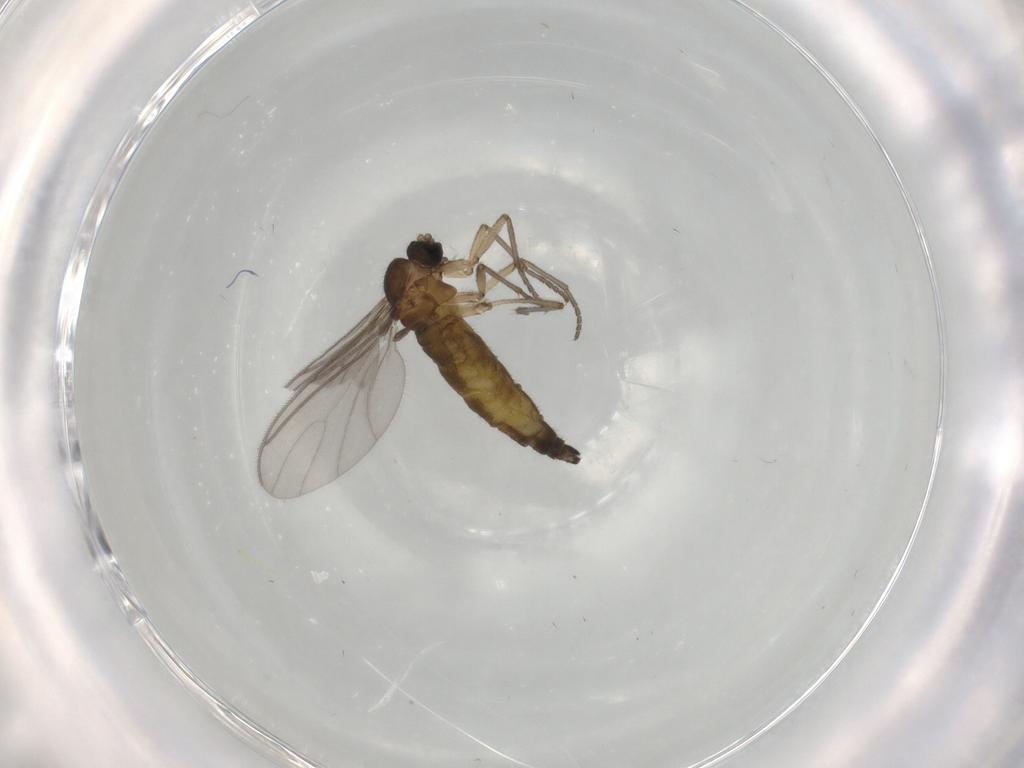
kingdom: Animalia
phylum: Arthropoda
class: Insecta
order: Diptera
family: Sciaridae
